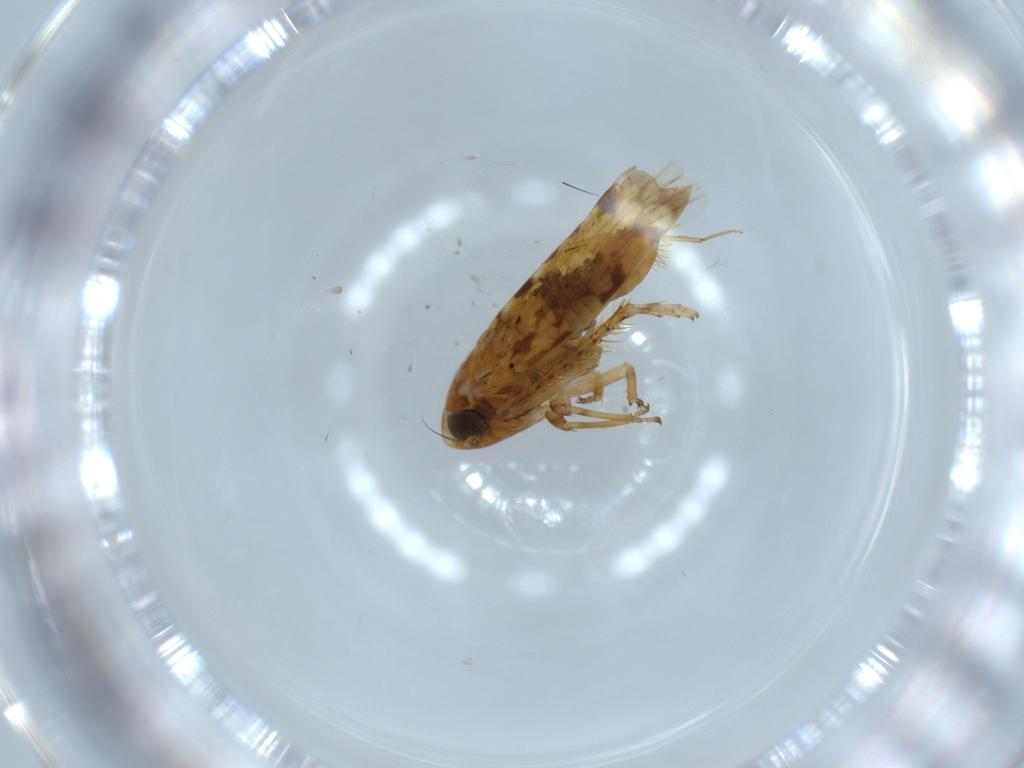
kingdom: Animalia
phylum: Arthropoda
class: Insecta
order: Hemiptera
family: Cicadellidae
